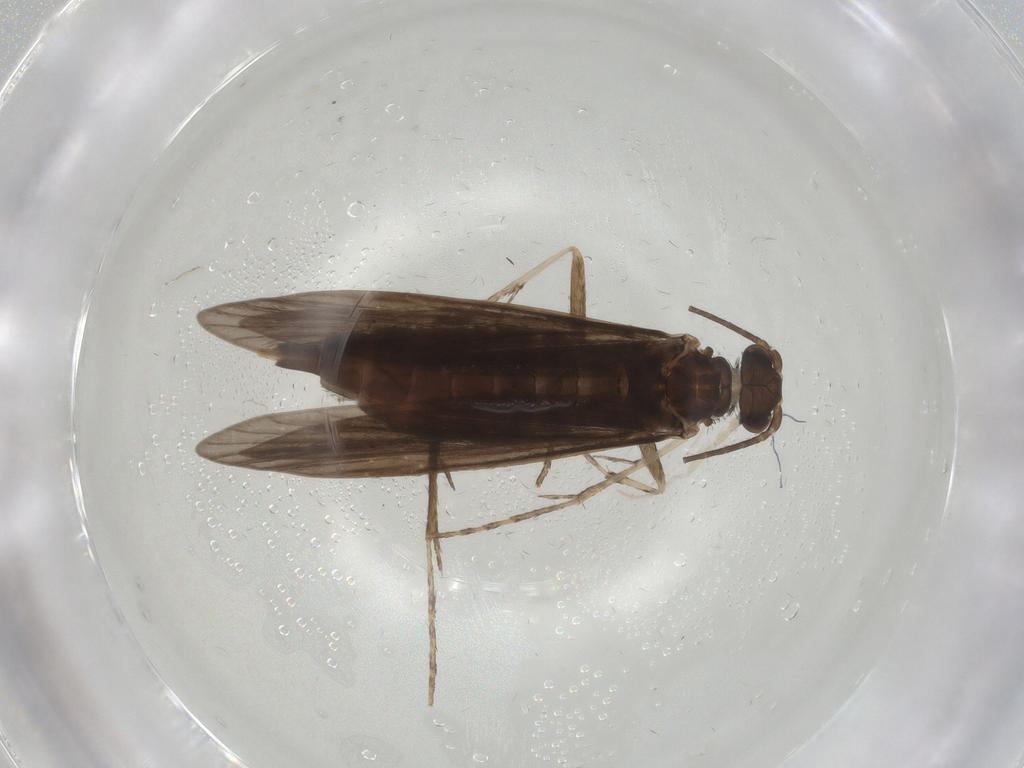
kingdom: Animalia
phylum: Arthropoda
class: Insecta
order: Trichoptera
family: Xiphocentronidae
